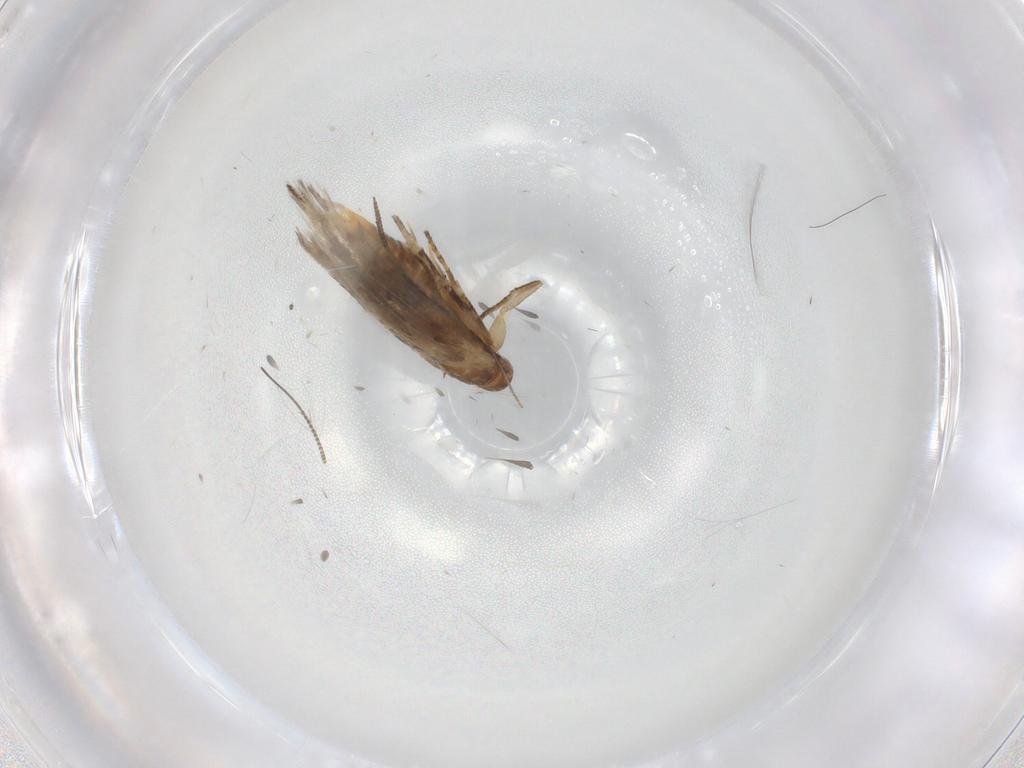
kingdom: Animalia
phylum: Arthropoda
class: Insecta
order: Lepidoptera
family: Momphidae
